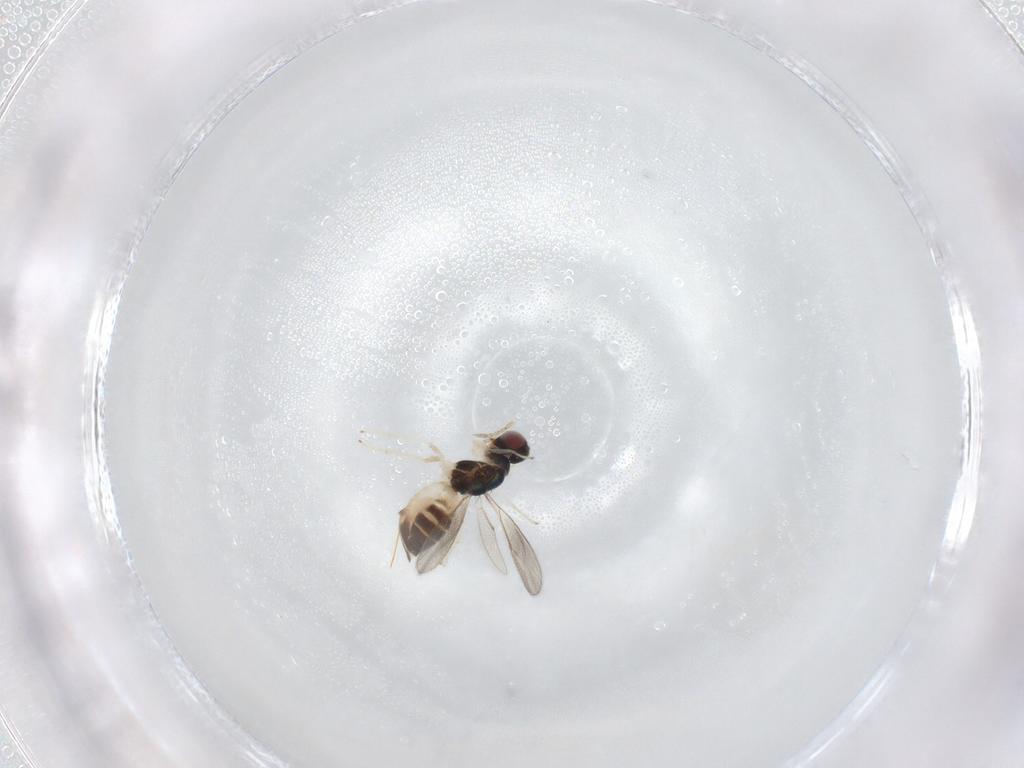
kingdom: Animalia
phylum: Arthropoda
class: Insecta
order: Hymenoptera
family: Eulophidae
